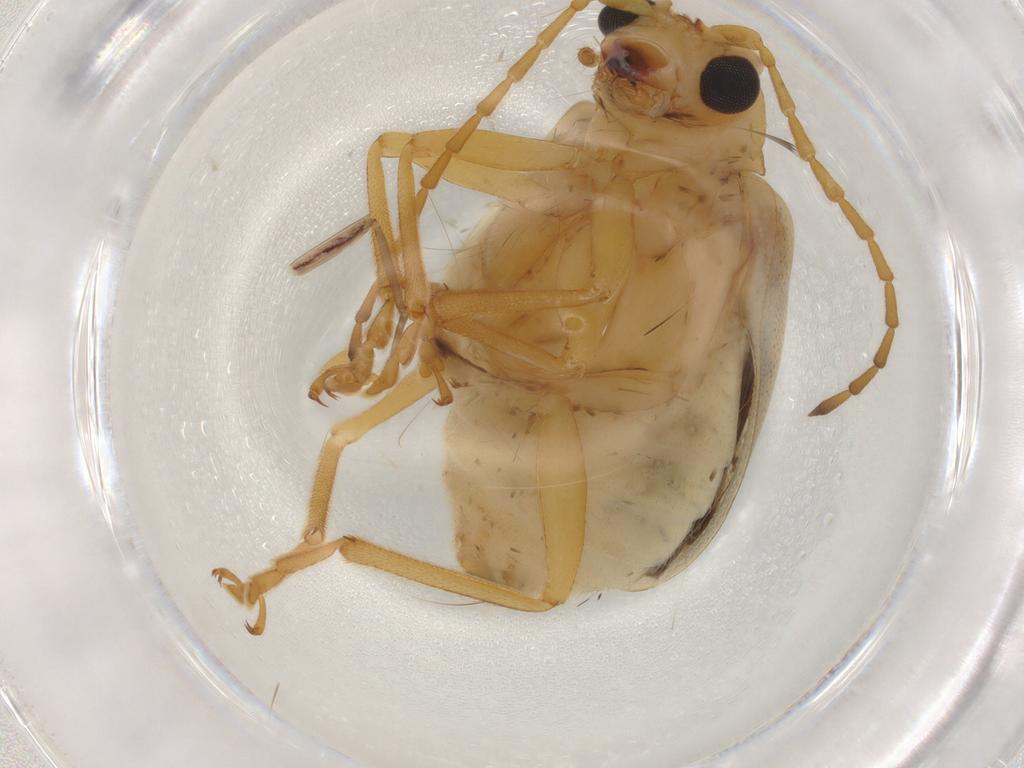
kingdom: Animalia
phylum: Arthropoda
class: Insecta
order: Coleoptera
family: Chrysomelidae
